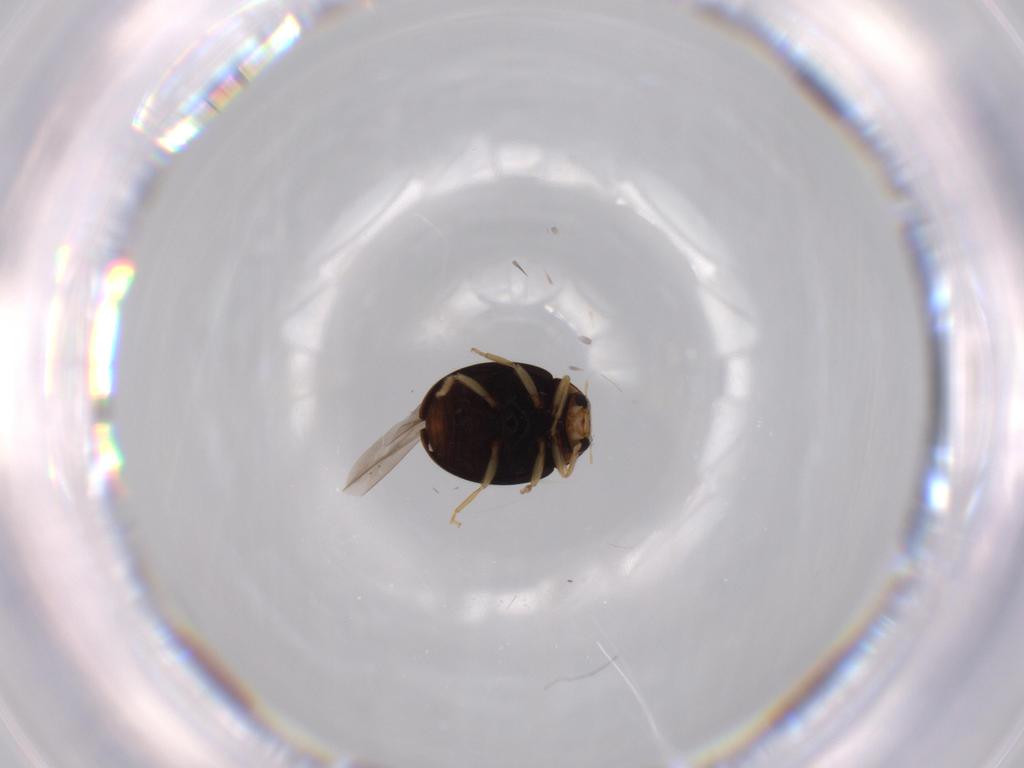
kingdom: Animalia
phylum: Arthropoda
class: Insecta
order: Coleoptera
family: Coccinellidae
